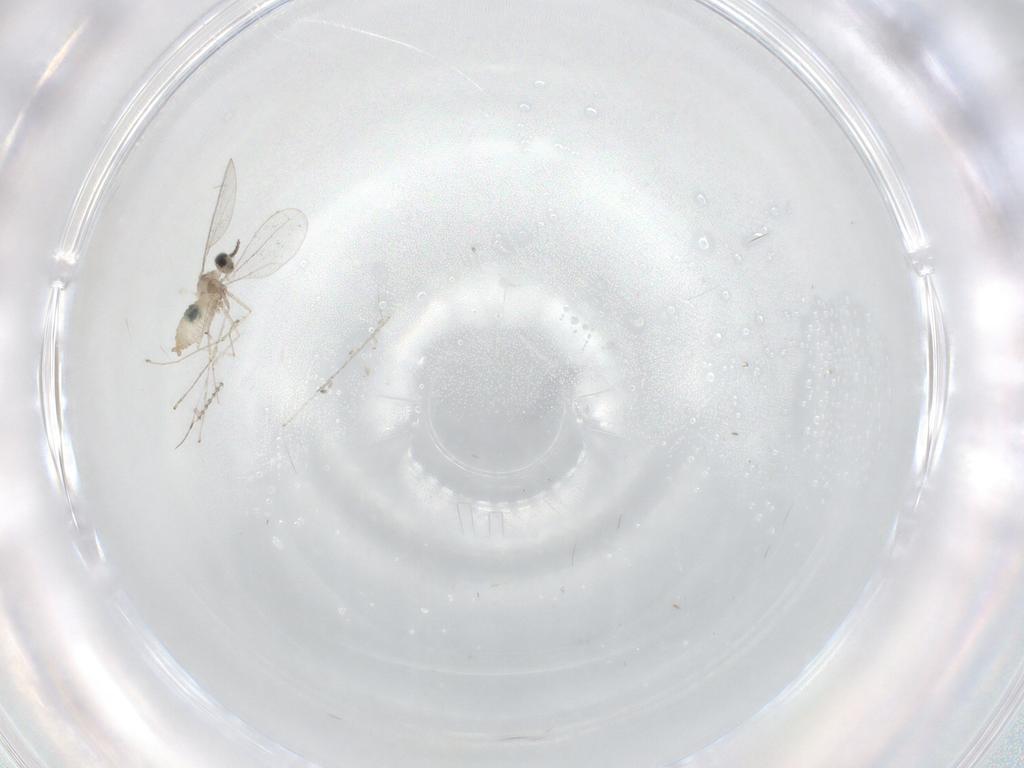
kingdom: Animalia
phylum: Arthropoda
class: Insecta
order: Diptera
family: Cecidomyiidae
